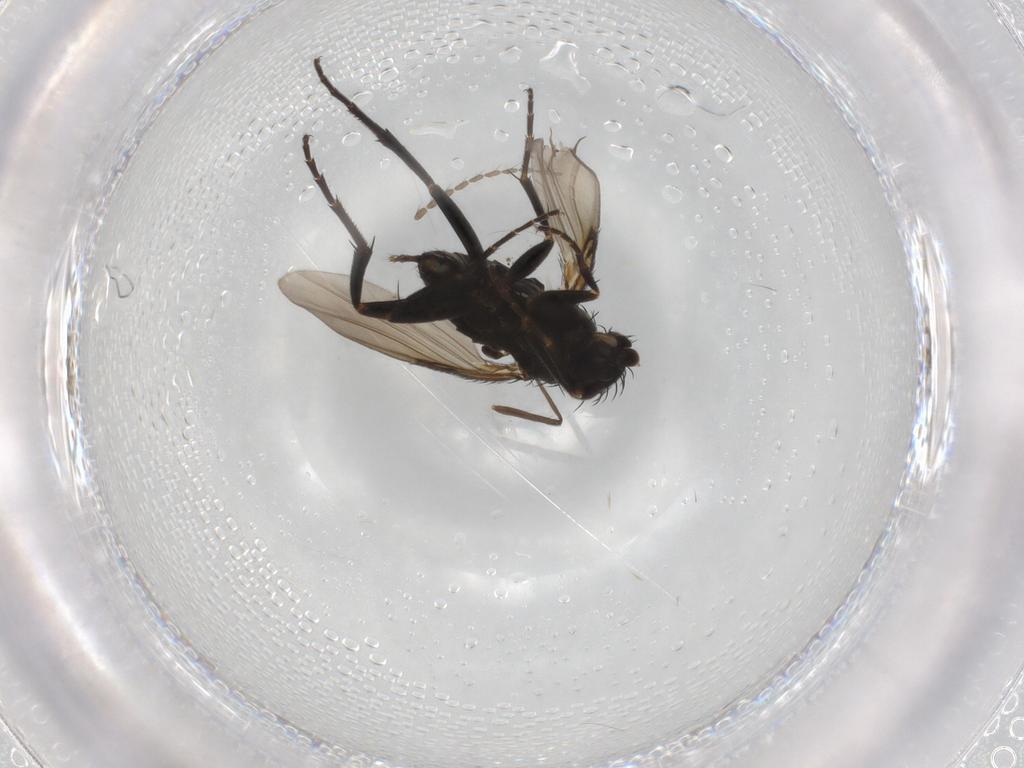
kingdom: Animalia
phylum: Arthropoda
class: Insecta
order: Diptera
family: Phoridae
